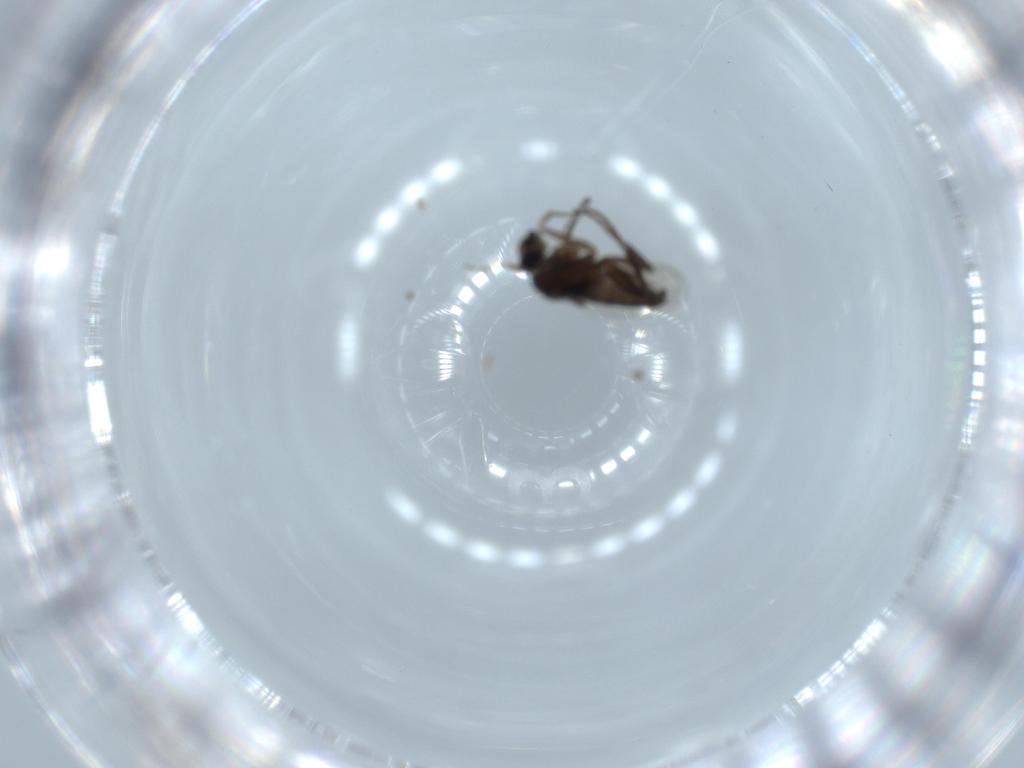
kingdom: Animalia
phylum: Arthropoda
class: Insecta
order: Diptera
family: Phoridae
